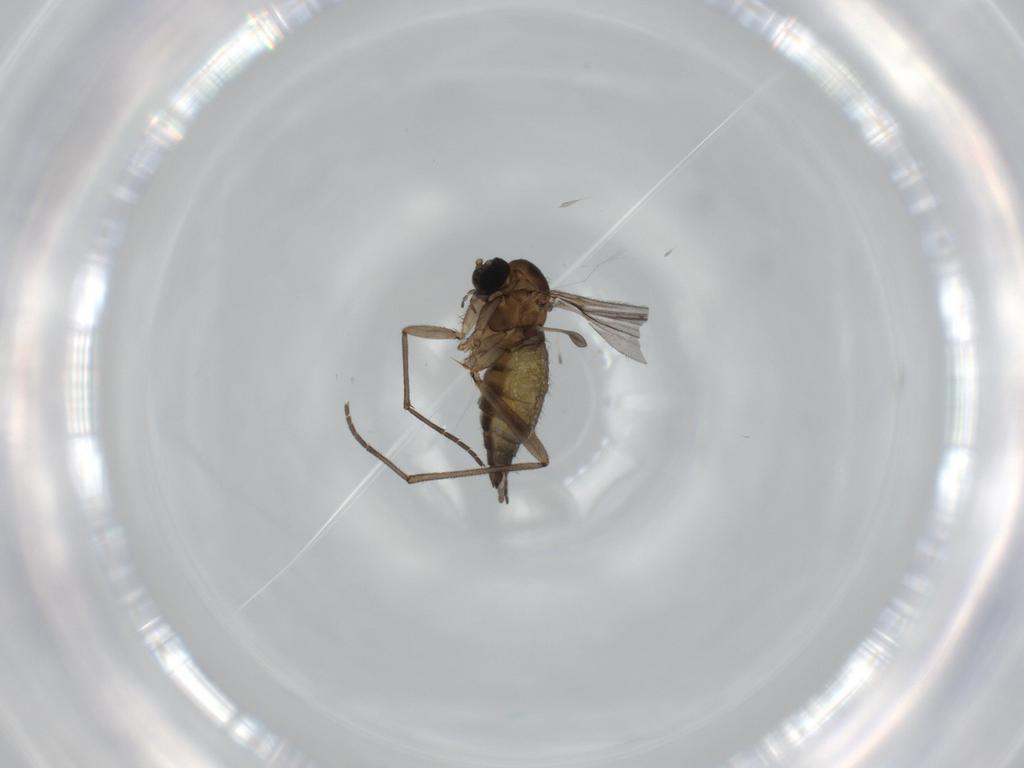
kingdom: Animalia
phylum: Arthropoda
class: Insecta
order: Diptera
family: Sciaridae
